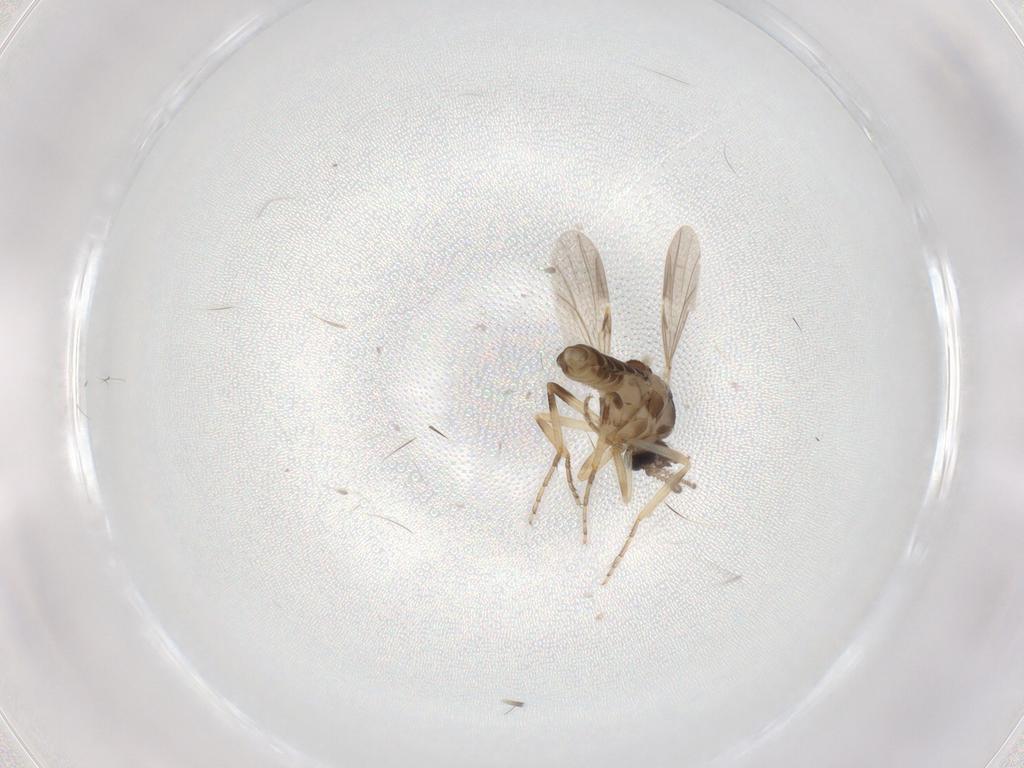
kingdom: Animalia
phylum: Arthropoda
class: Insecta
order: Diptera
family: Ceratopogonidae
